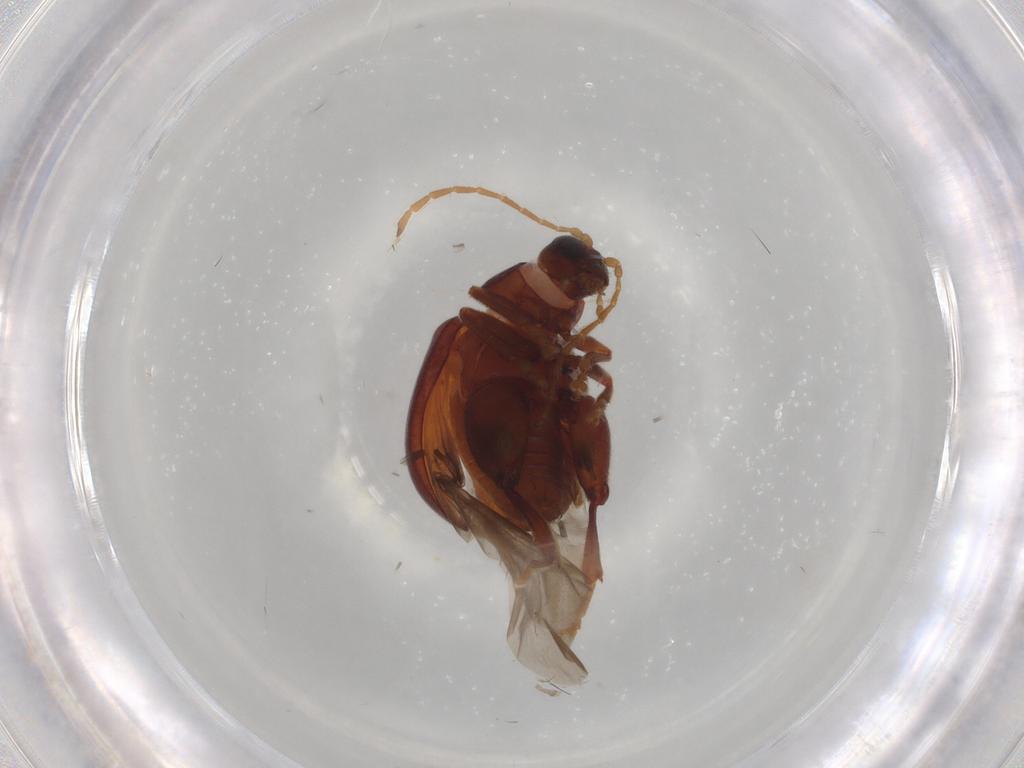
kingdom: Animalia
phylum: Arthropoda
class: Insecta
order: Coleoptera
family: Chrysomelidae
